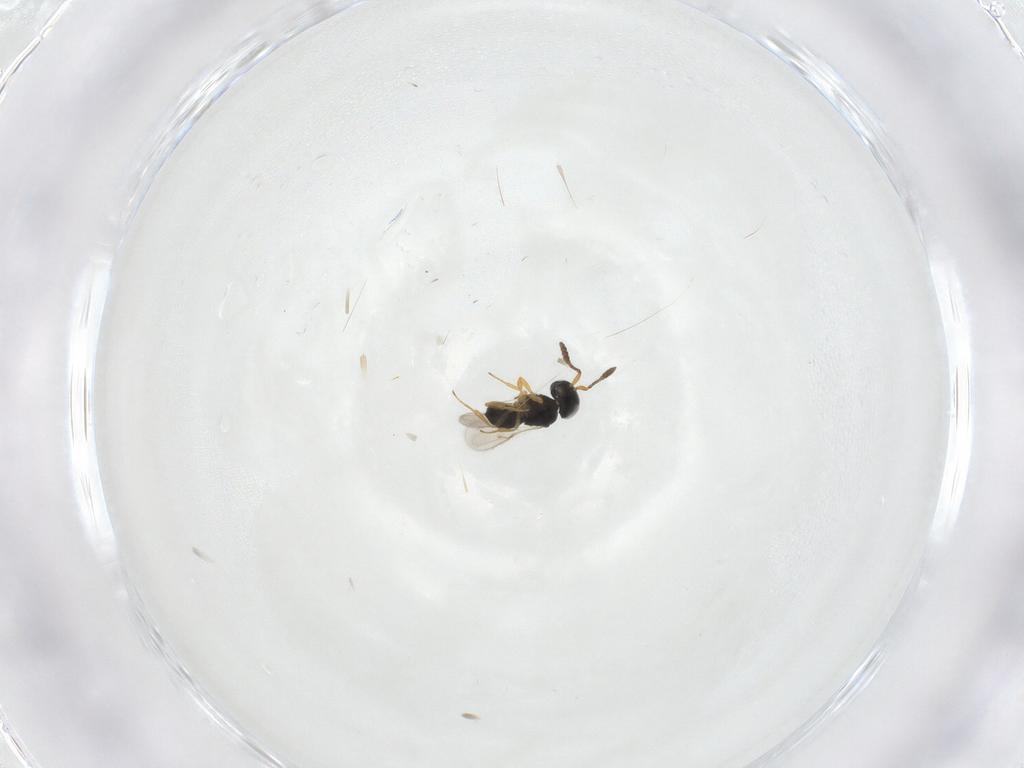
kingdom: Animalia
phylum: Arthropoda
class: Insecta
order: Hymenoptera
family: Scelionidae
